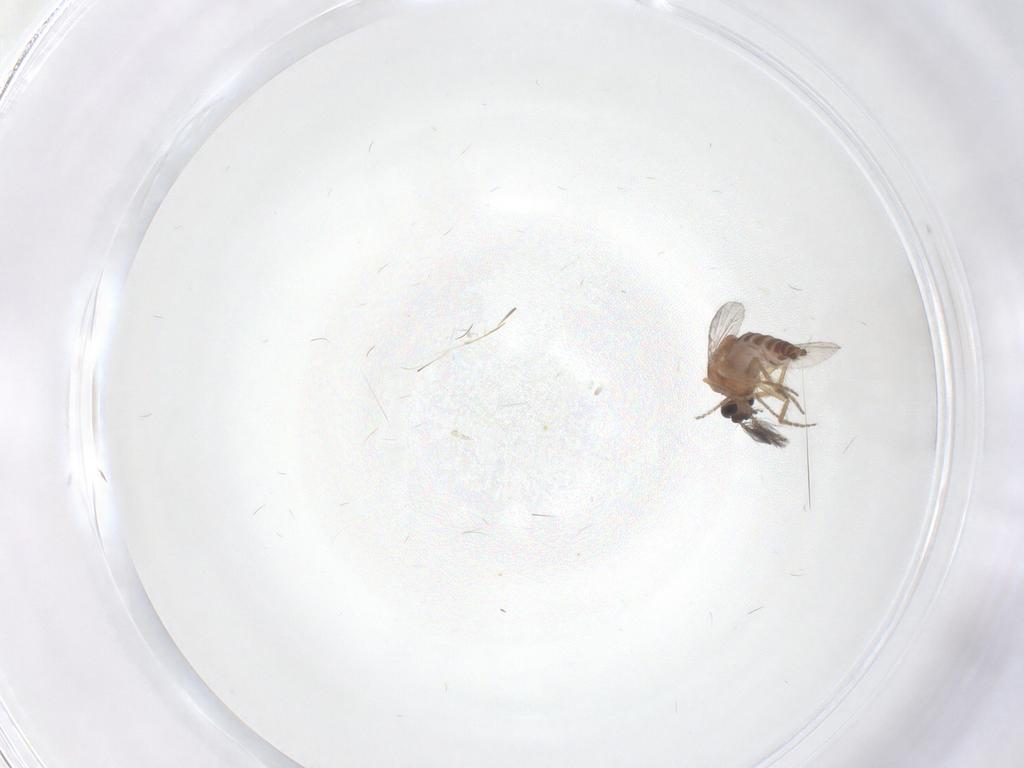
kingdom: Animalia
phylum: Arthropoda
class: Insecta
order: Diptera
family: Ceratopogonidae
